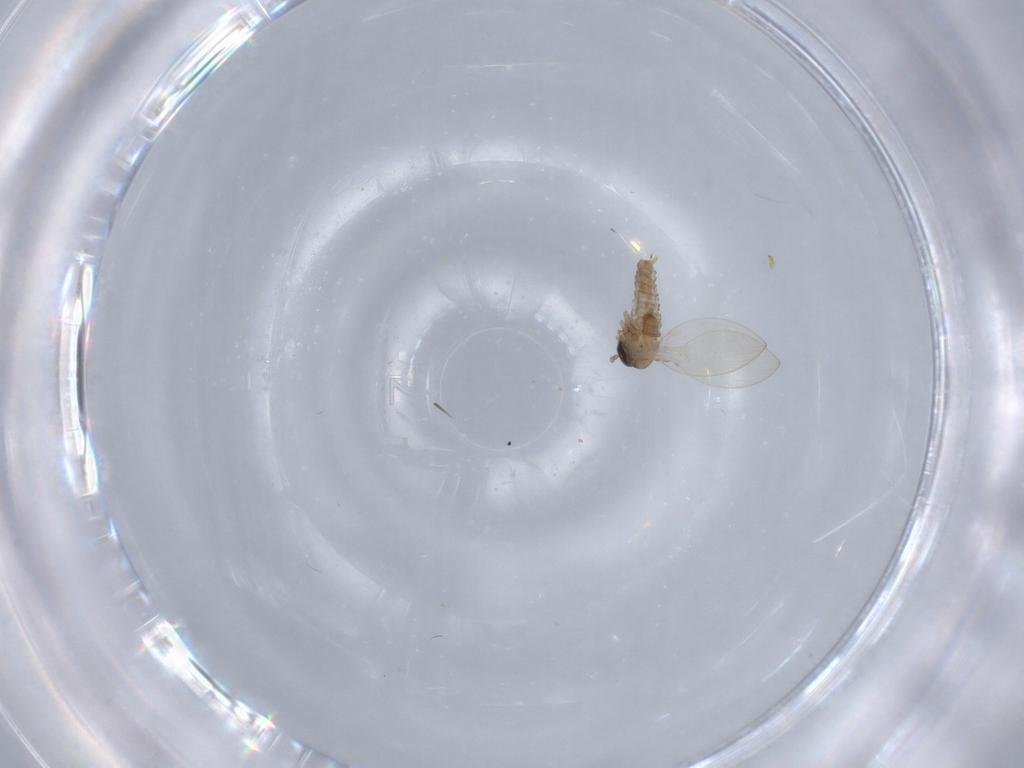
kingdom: Animalia
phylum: Arthropoda
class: Insecta
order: Diptera
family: Psychodidae
